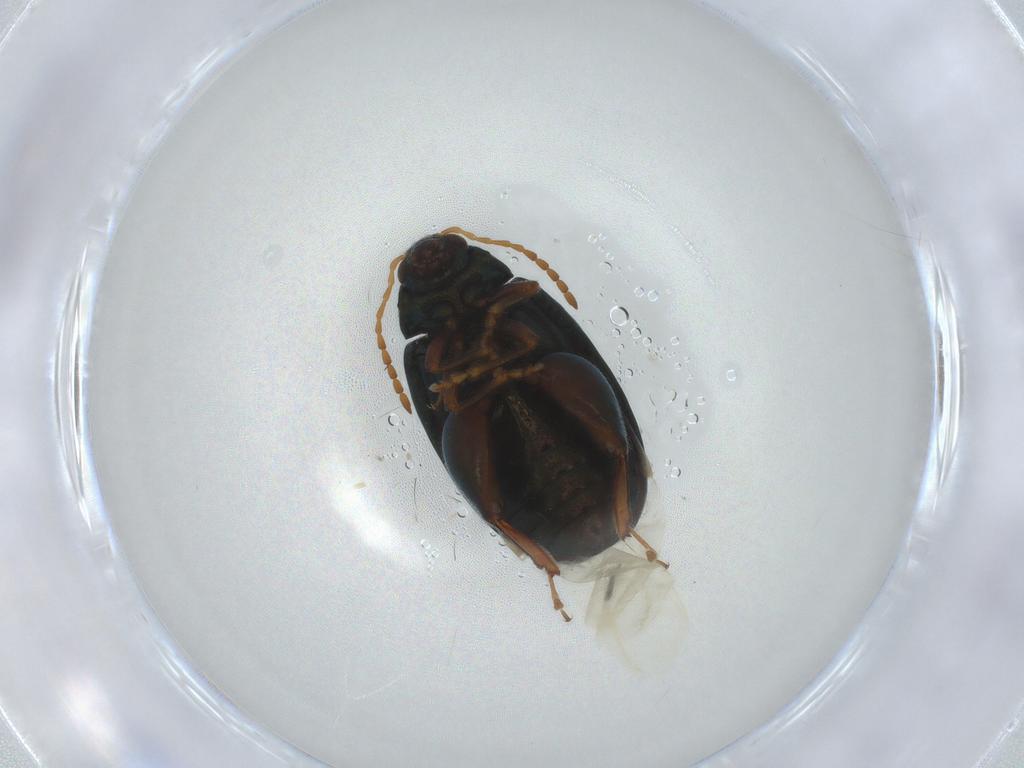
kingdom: Animalia
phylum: Arthropoda
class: Insecta
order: Coleoptera
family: Chrysomelidae
